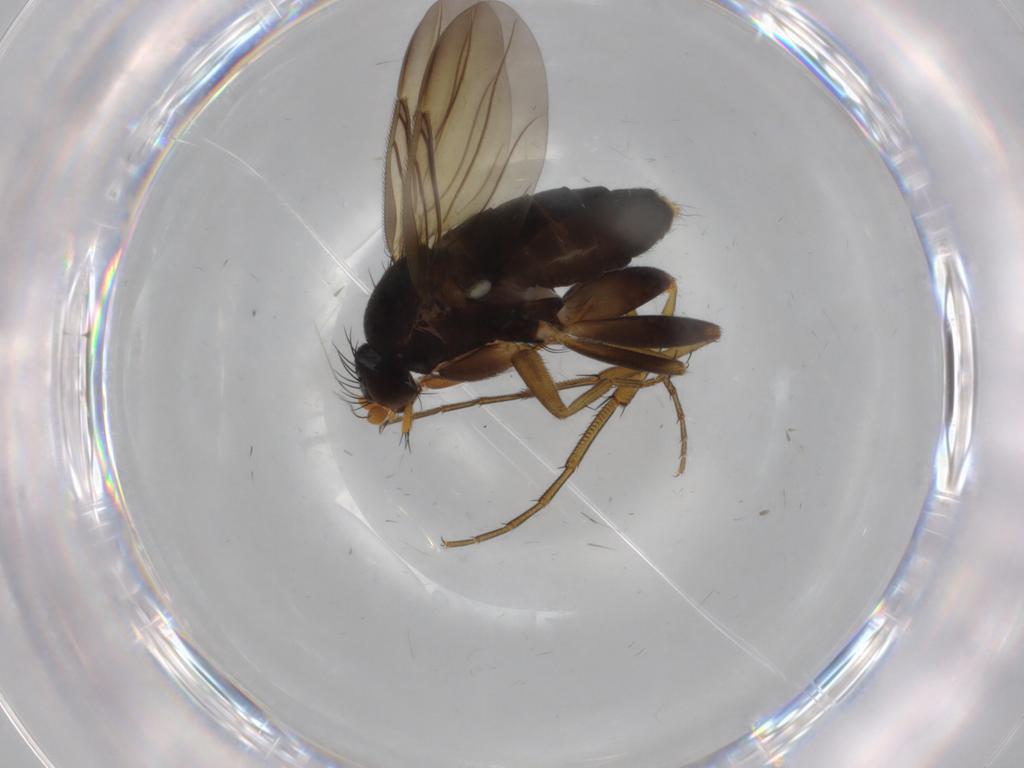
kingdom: Animalia
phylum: Arthropoda
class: Insecta
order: Diptera
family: Phoridae
